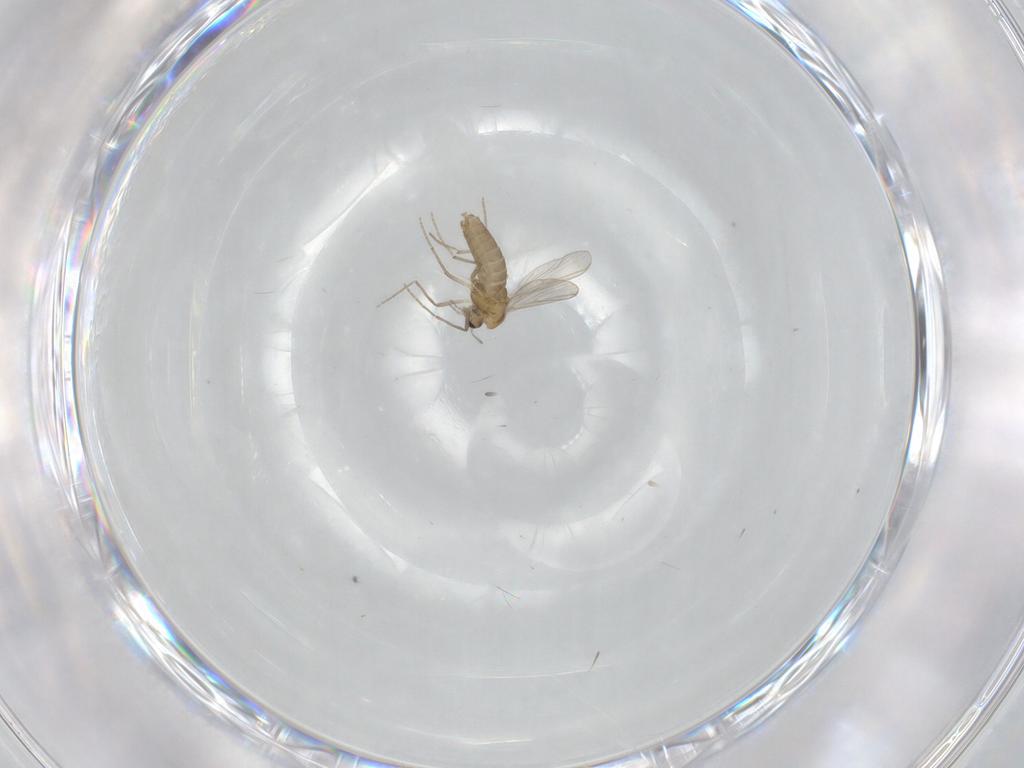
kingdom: Animalia
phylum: Arthropoda
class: Insecta
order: Diptera
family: Chironomidae
